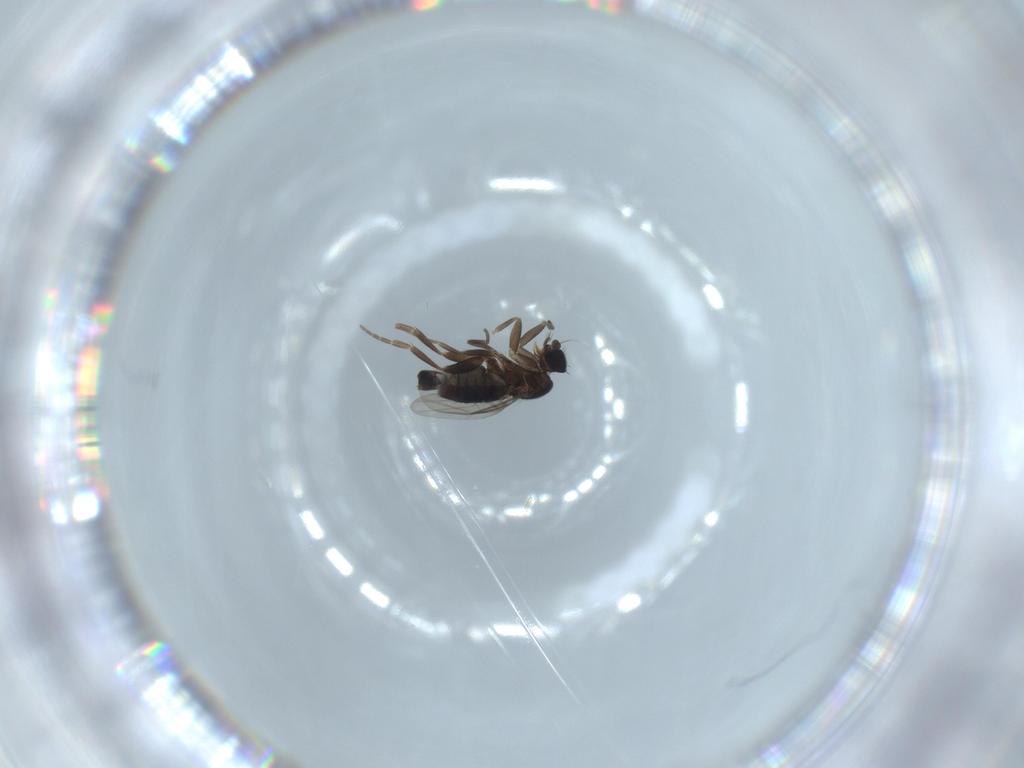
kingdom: Animalia
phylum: Arthropoda
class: Insecta
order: Diptera
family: Phoridae
